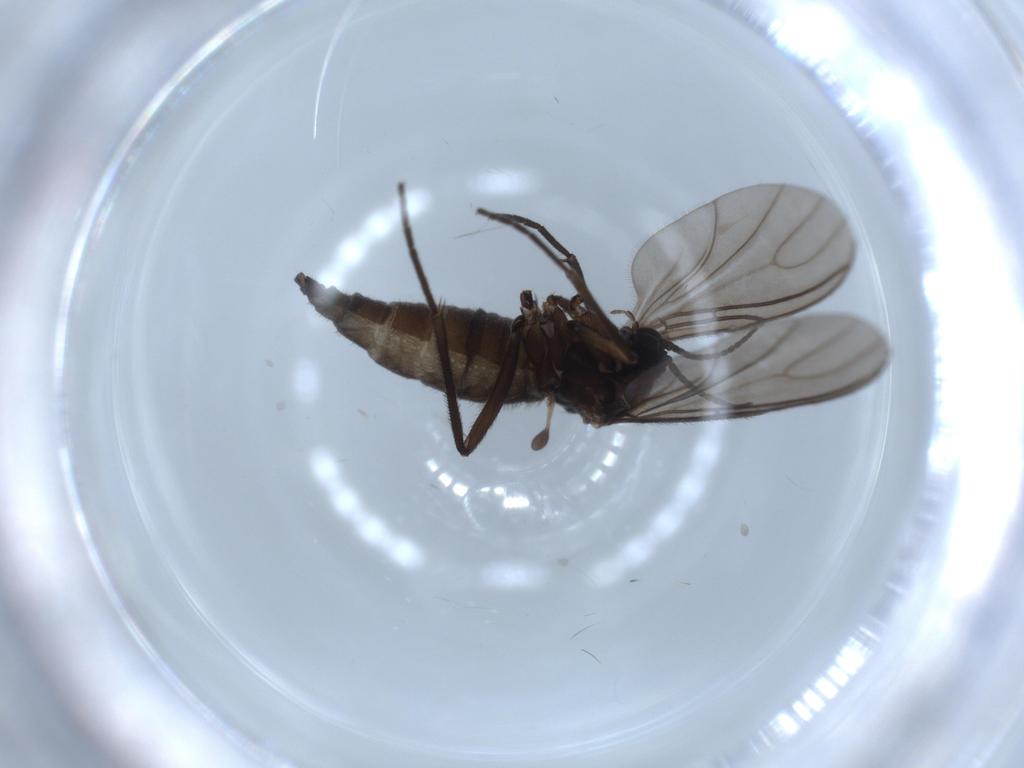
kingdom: Animalia
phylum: Arthropoda
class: Insecta
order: Diptera
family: Sciaridae
